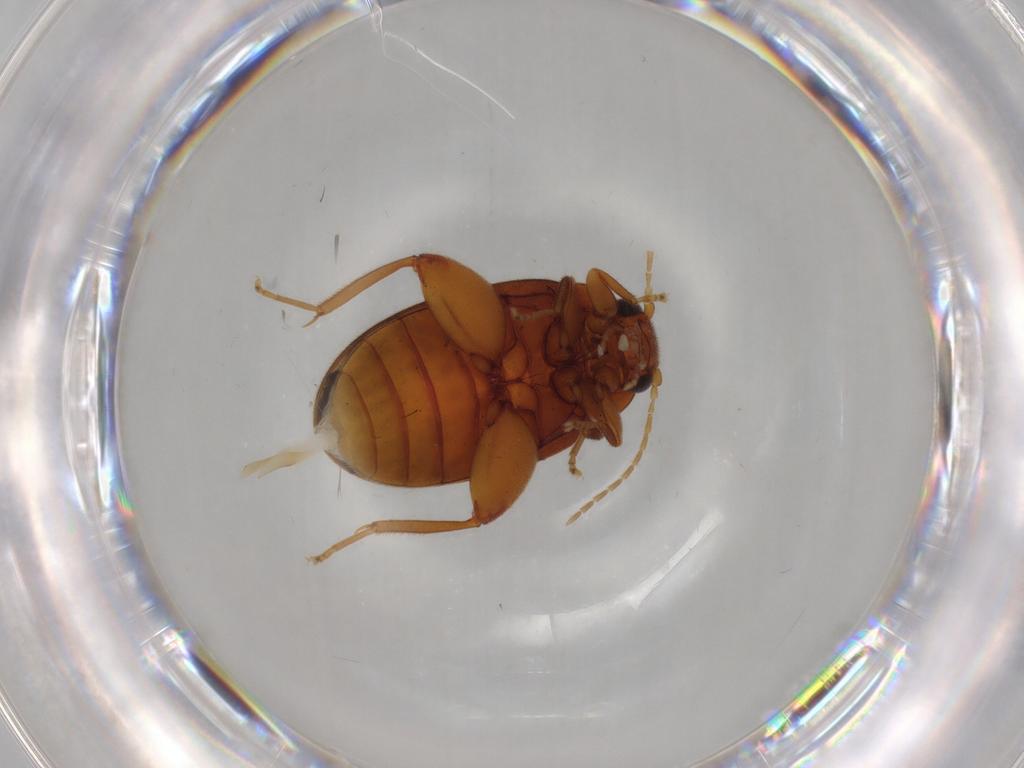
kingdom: Animalia
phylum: Arthropoda
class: Insecta
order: Coleoptera
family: Scirtidae
